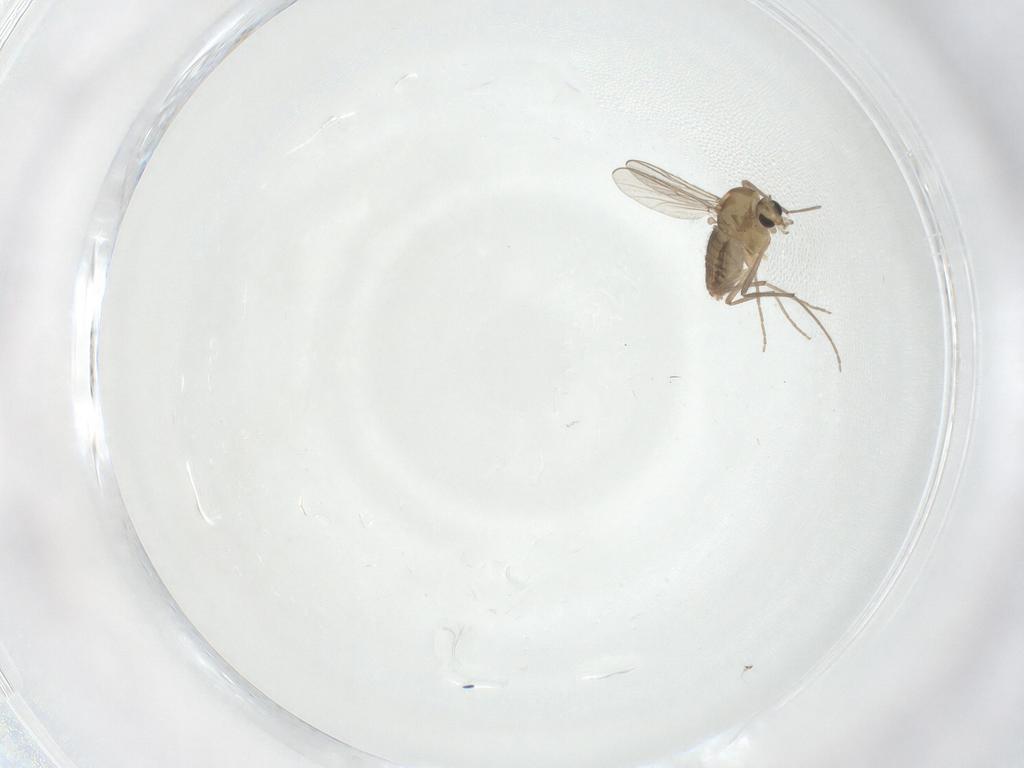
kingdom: Animalia
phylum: Arthropoda
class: Insecta
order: Diptera
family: Chironomidae
